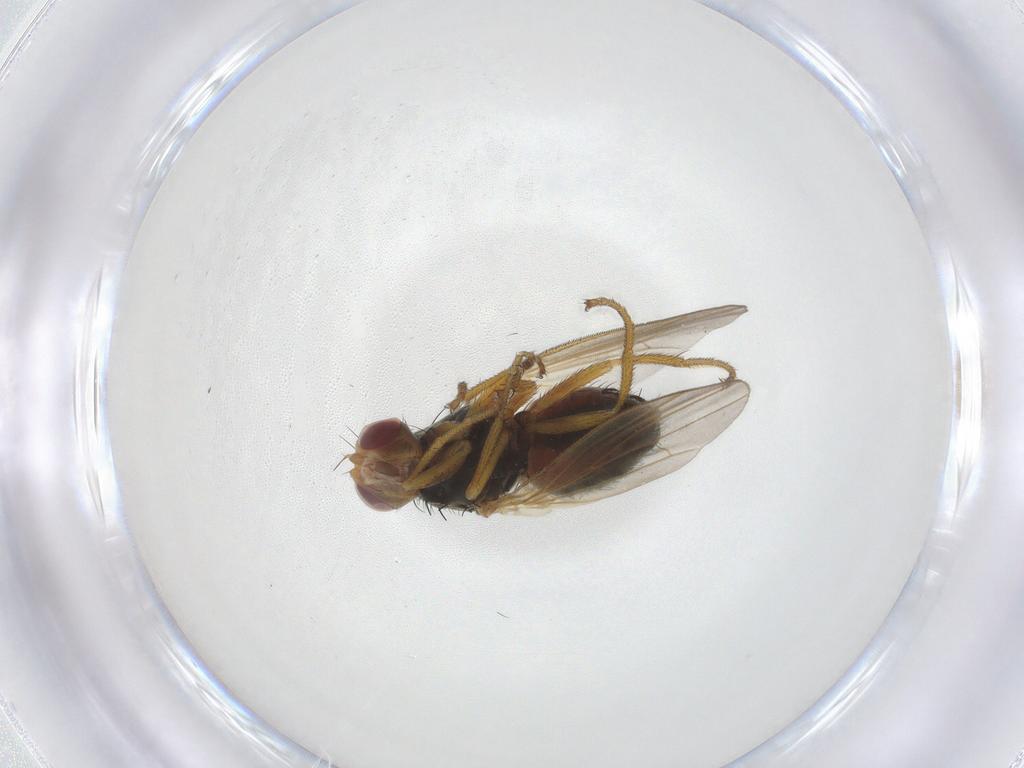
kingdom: Animalia
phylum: Arthropoda
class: Insecta
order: Diptera
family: Heleomyzidae
